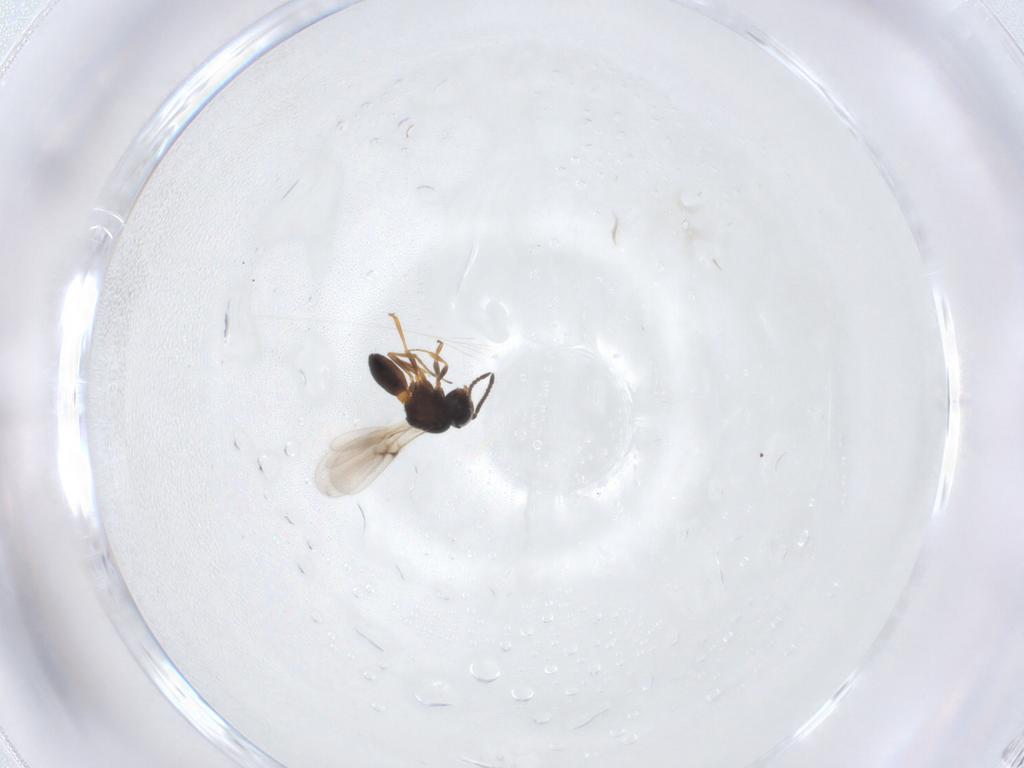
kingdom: Animalia
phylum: Arthropoda
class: Insecta
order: Hymenoptera
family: Scelionidae
